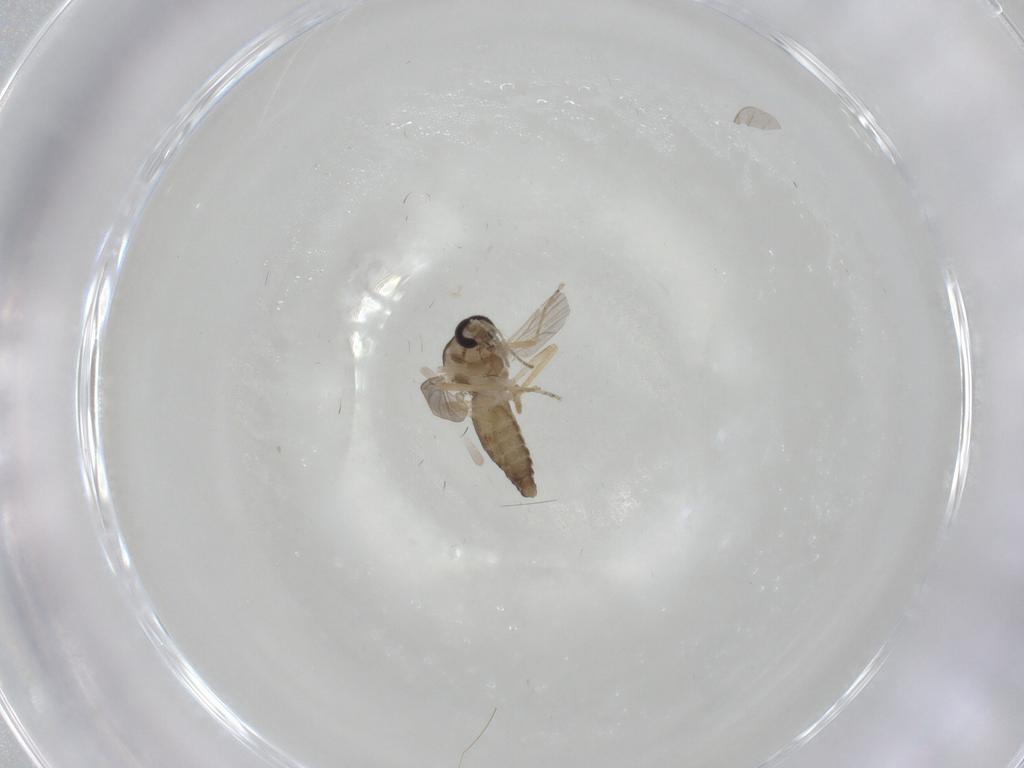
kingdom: Animalia
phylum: Arthropoda
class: Insecta
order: Diptera
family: Ceratopogonidae
